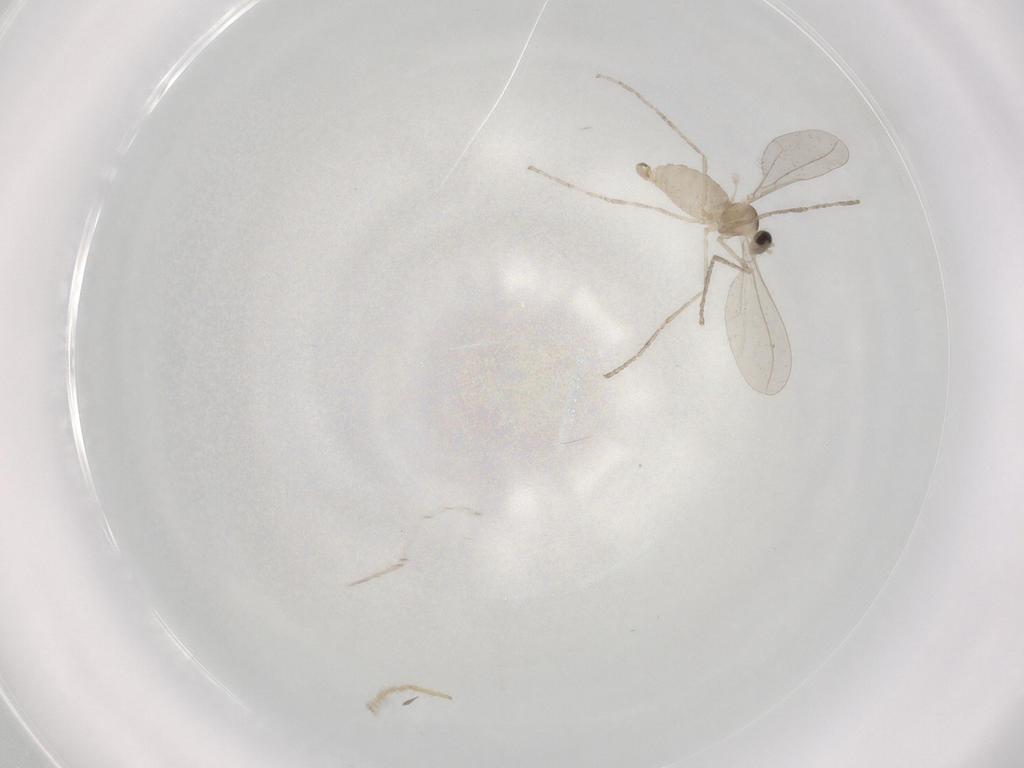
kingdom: Animalia
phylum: Arthropoda
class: Insecta
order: Diptera
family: Cecidomyiidae
